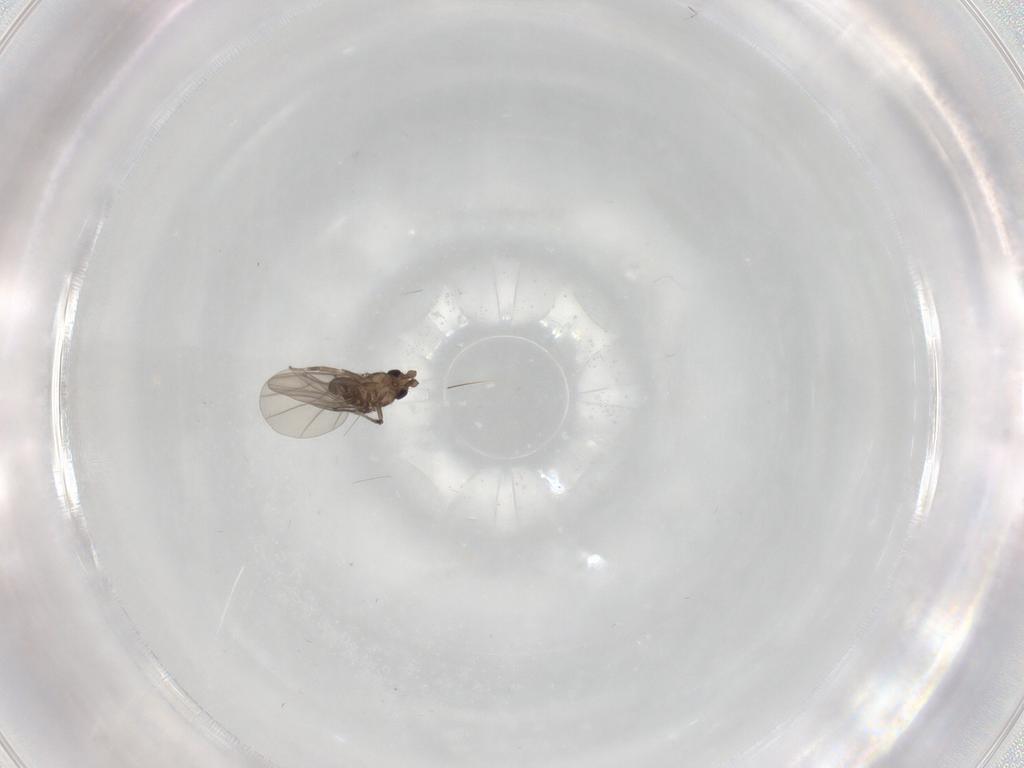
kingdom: Animalia
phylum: Arthropoda
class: Insecta
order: Diptera
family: Phoridae
